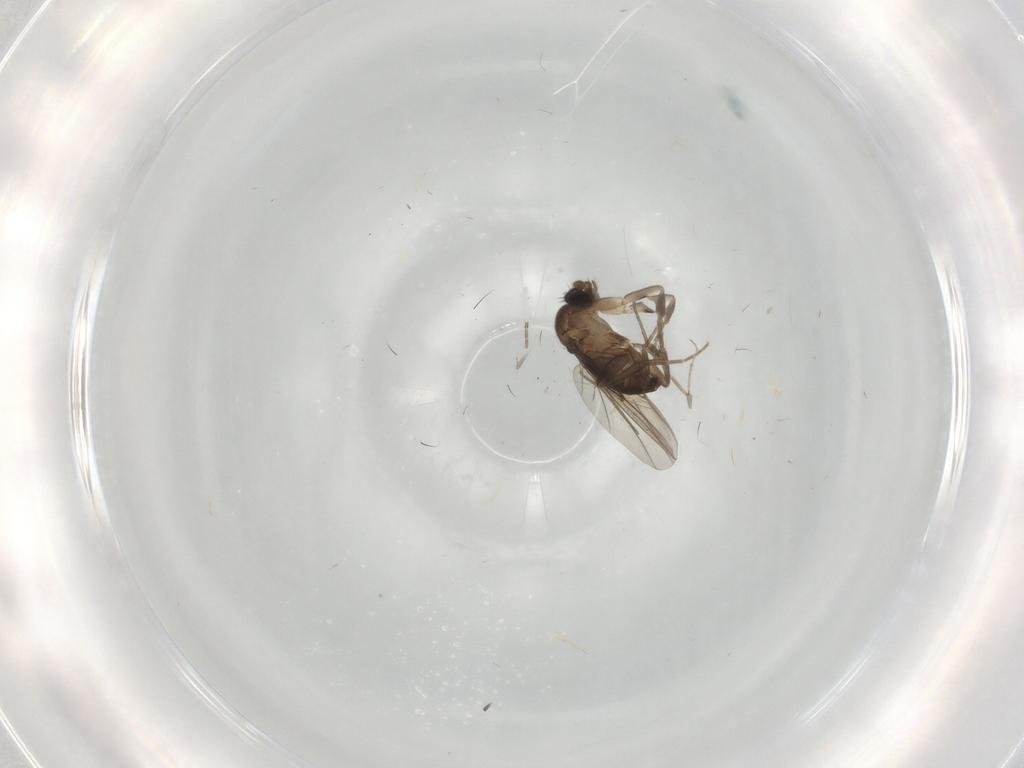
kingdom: Animalia
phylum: Arthropoda
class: Insecta
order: Diptera
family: Phoridae
